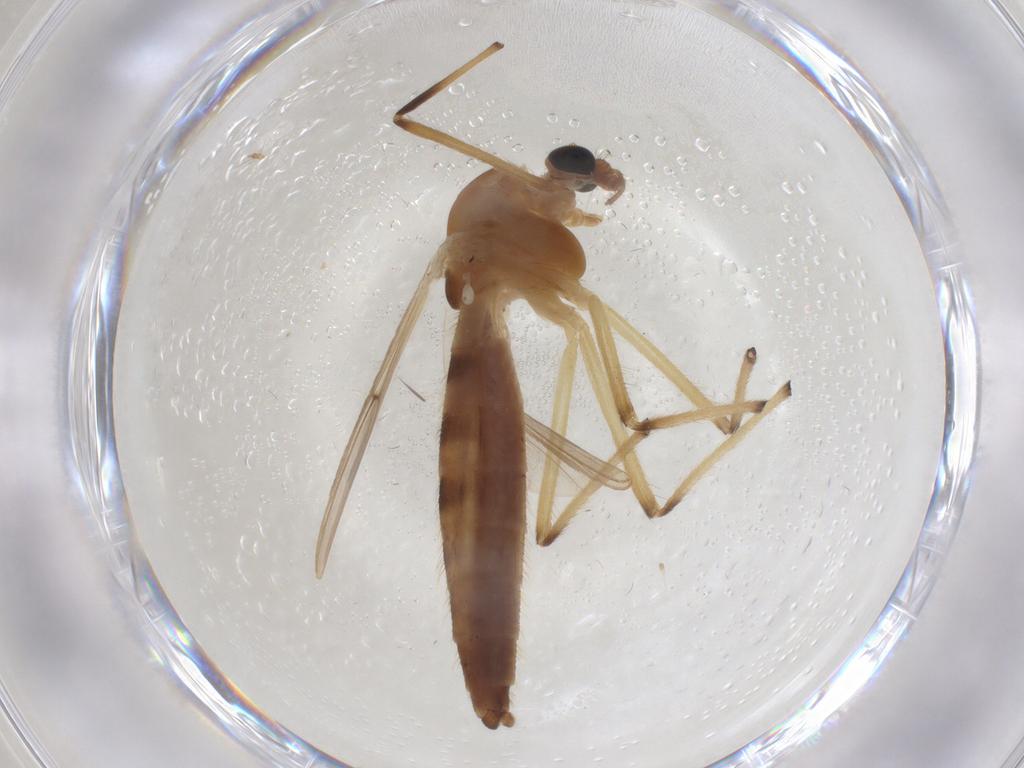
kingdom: Animalia
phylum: Arthropoda
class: Insecta
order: Diptera
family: Chironomidae
